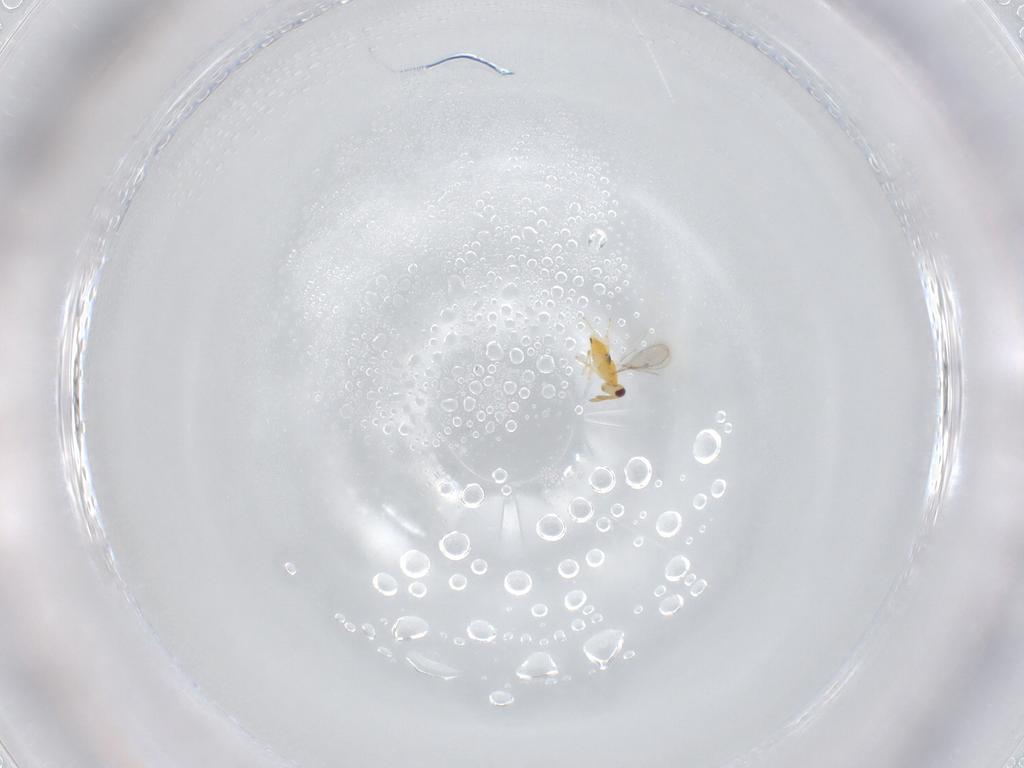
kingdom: Animalia
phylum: Arthropoda
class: Insecta
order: Hymenoptera
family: Aphelinidae
